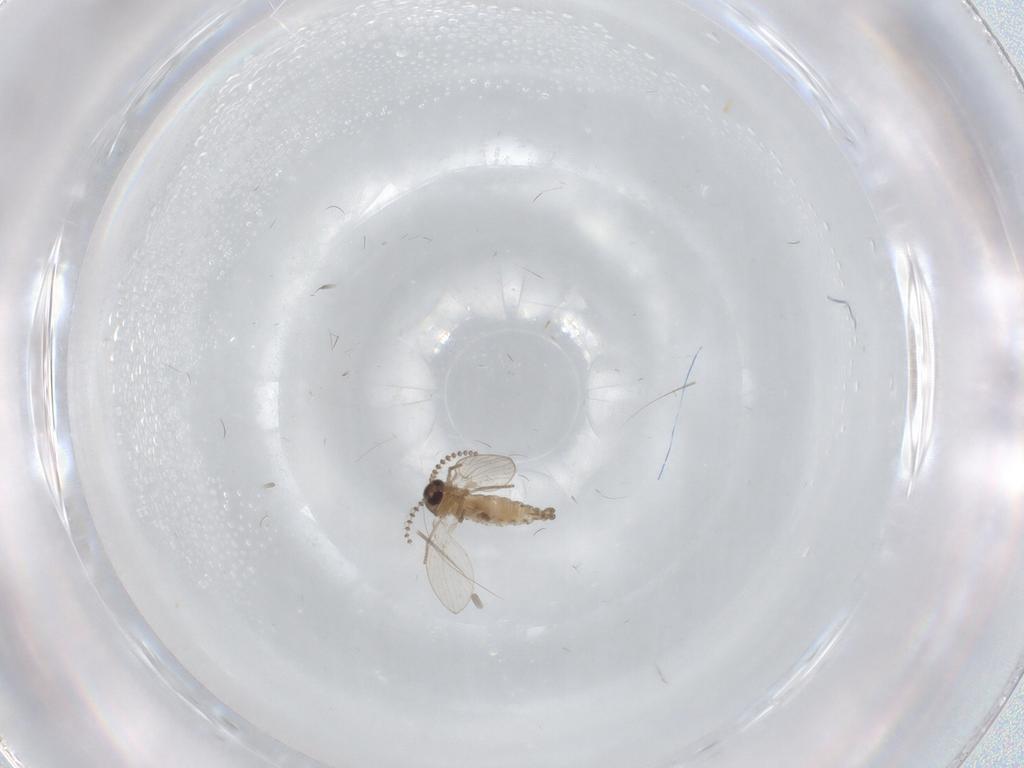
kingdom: Animalia
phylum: Arthropoda
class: Insecta
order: Diptera
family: Psychodidae
